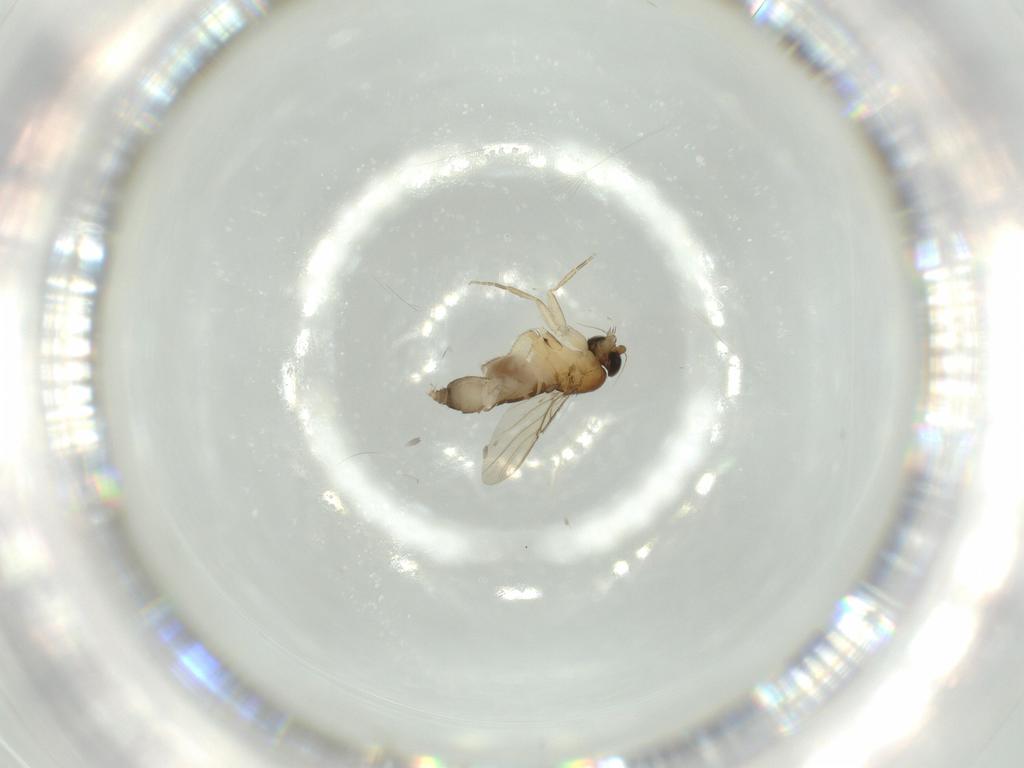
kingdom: Animalia
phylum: Arthropoda
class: Insecta
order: Diptera
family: Phoridae
